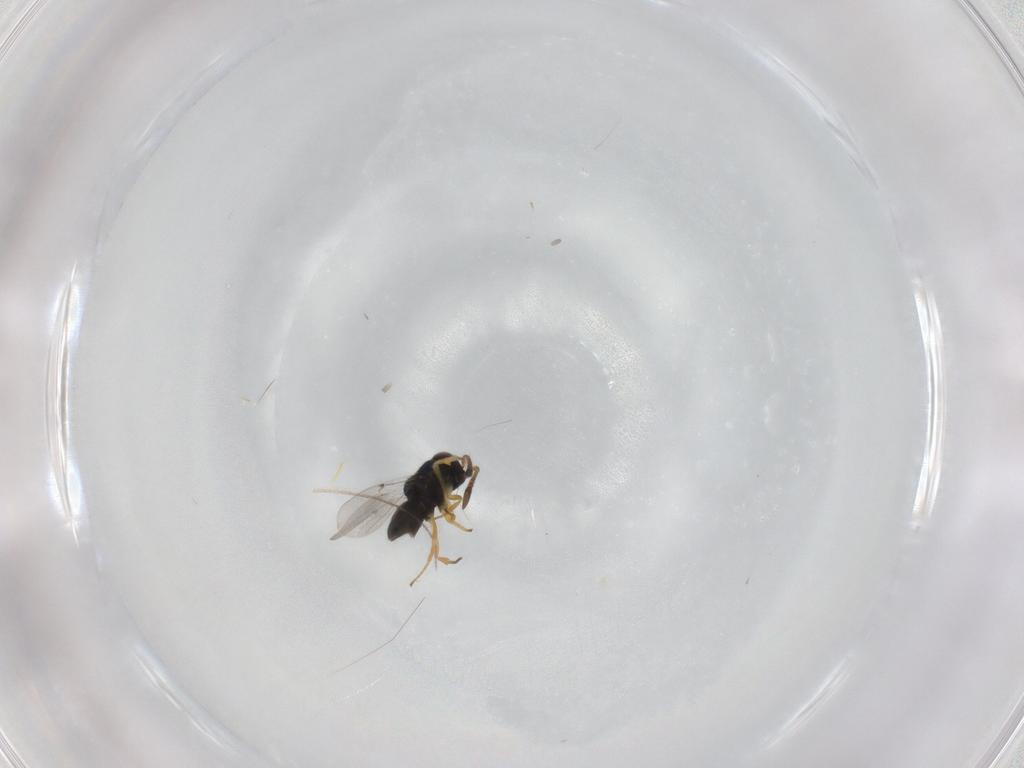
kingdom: Animalia
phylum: Arthropoda
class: Insecta
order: Hymenoptera
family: Encyrtidae
